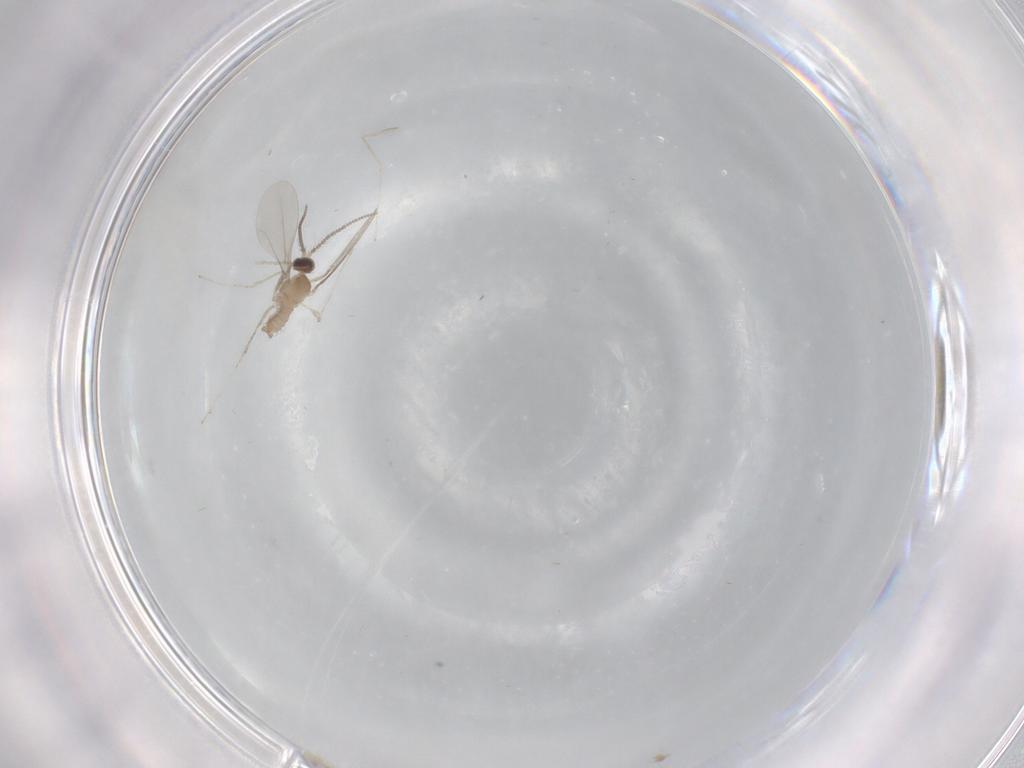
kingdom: Animalia
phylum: Arthropoda
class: Insecta
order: Diptera
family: Cecidomyiidae
